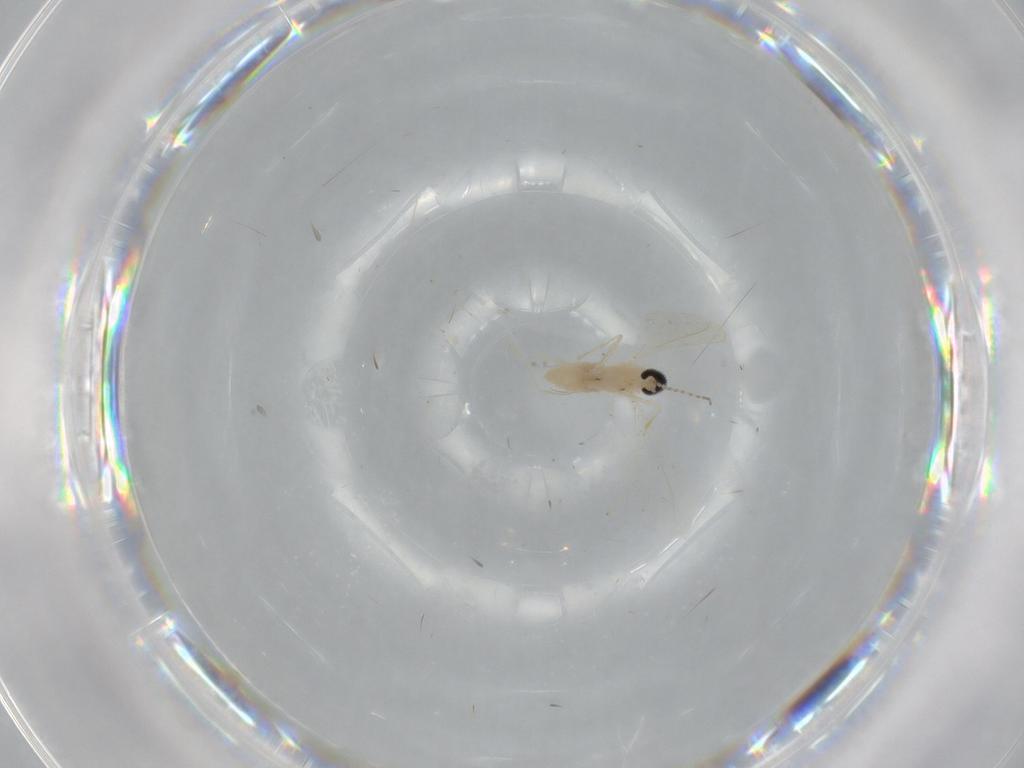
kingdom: Animalia
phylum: Arthropoda
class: Insecta
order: Diptera
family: Cecidomyiidae
